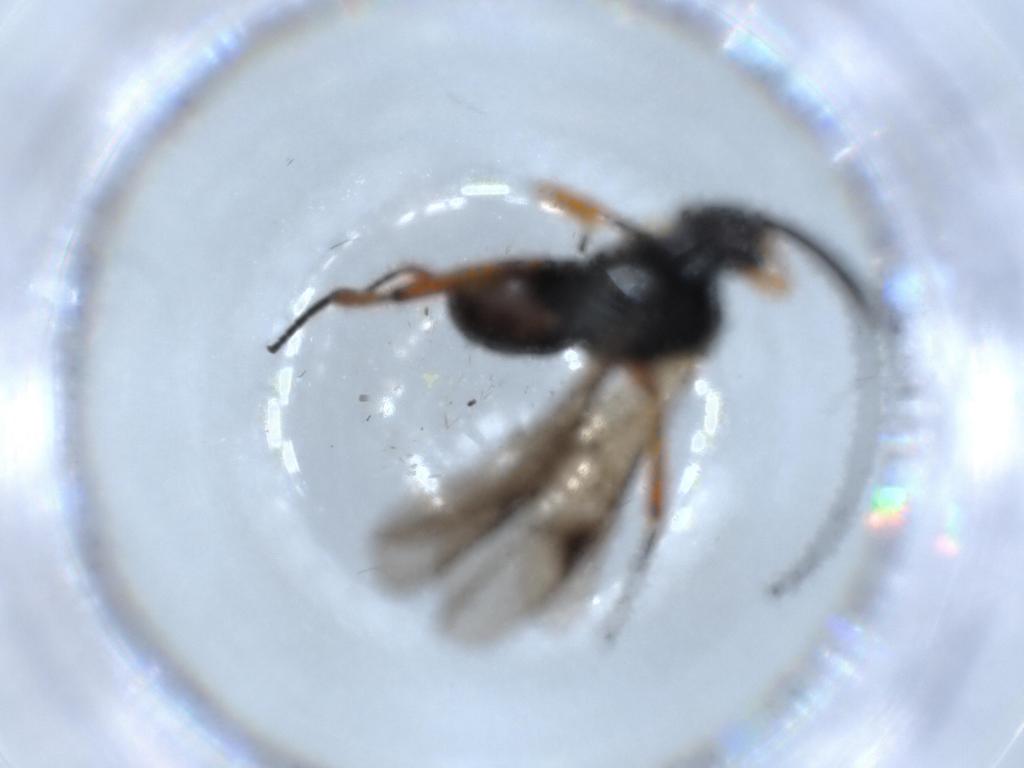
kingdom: Animalia
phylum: Arthropoda
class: Insecta
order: Hymenoptera
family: Braconidae
